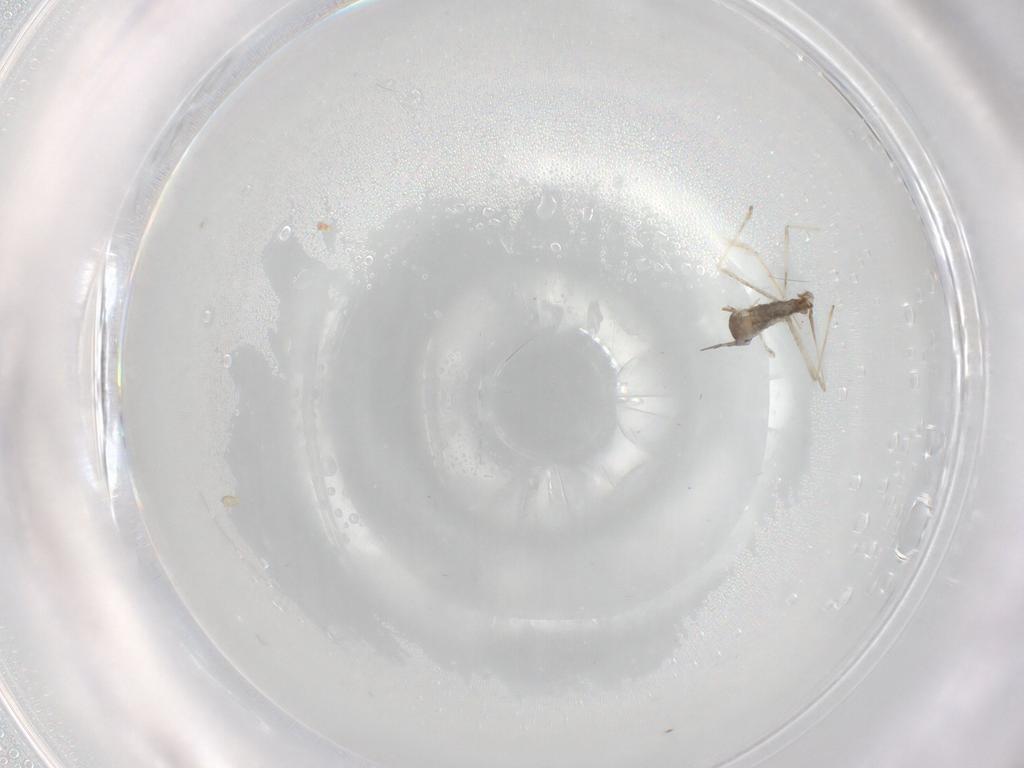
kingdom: Animalia
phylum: Arthropoda
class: Insecta
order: Diptera
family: Cecidomyiidae
